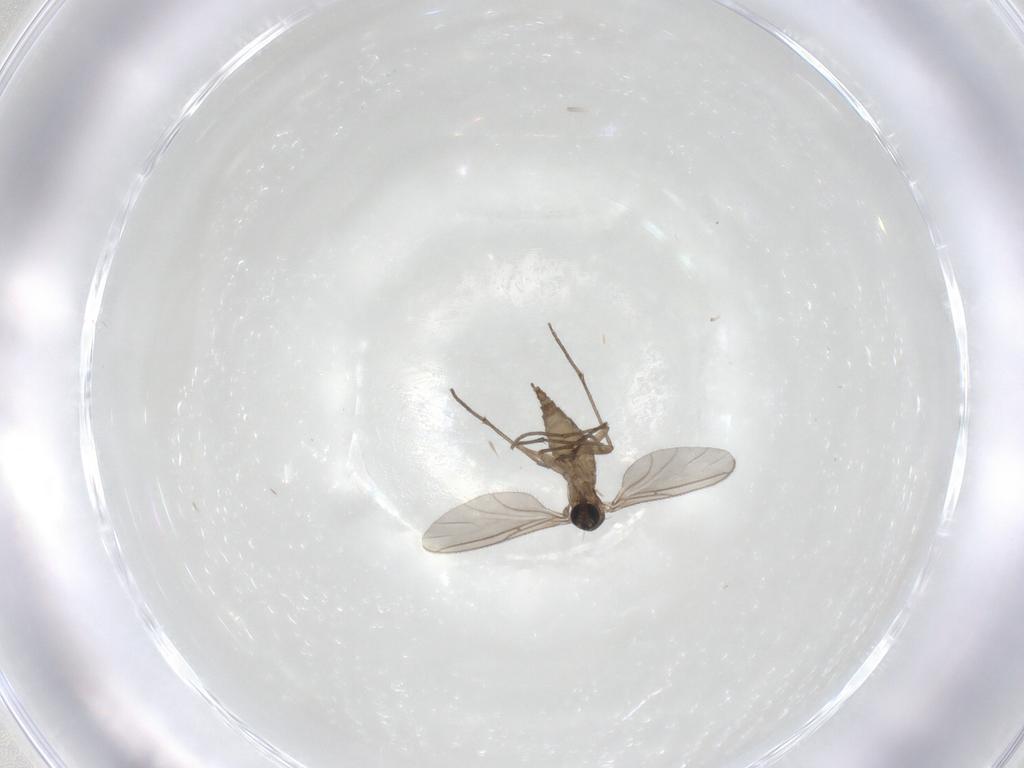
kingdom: Animalia
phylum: Arthropoda
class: Insecta
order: Diptera
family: Sciaridae
